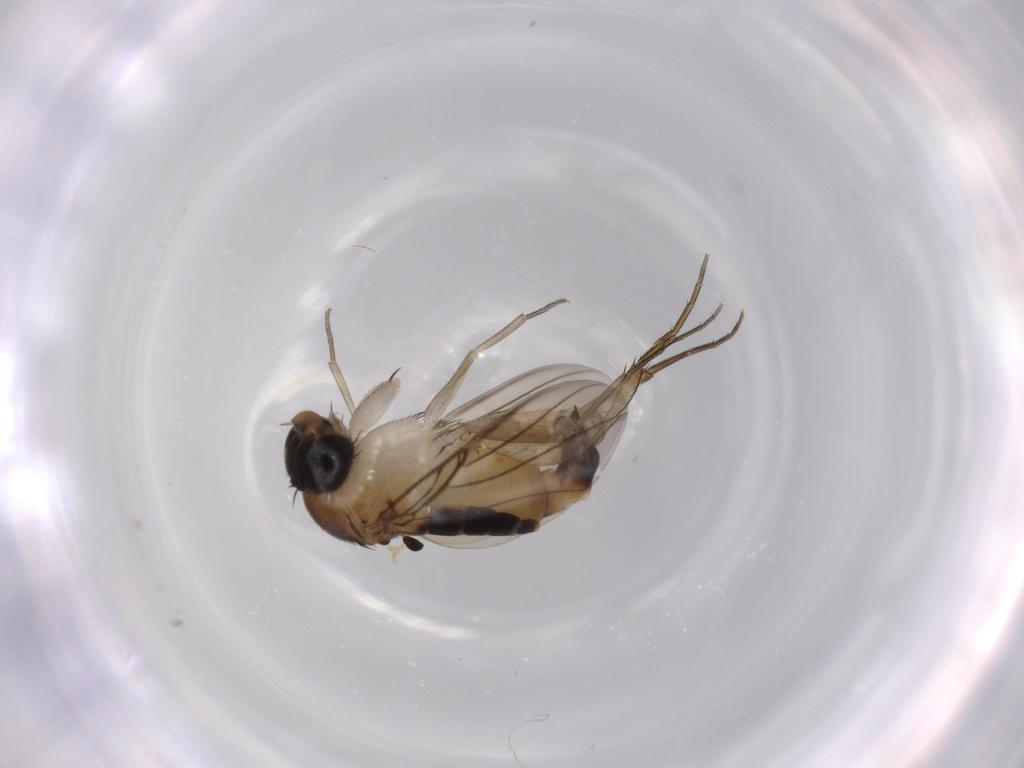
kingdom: Animalia
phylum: Arthropoda
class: Insecta
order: Diptera
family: Phoridae
